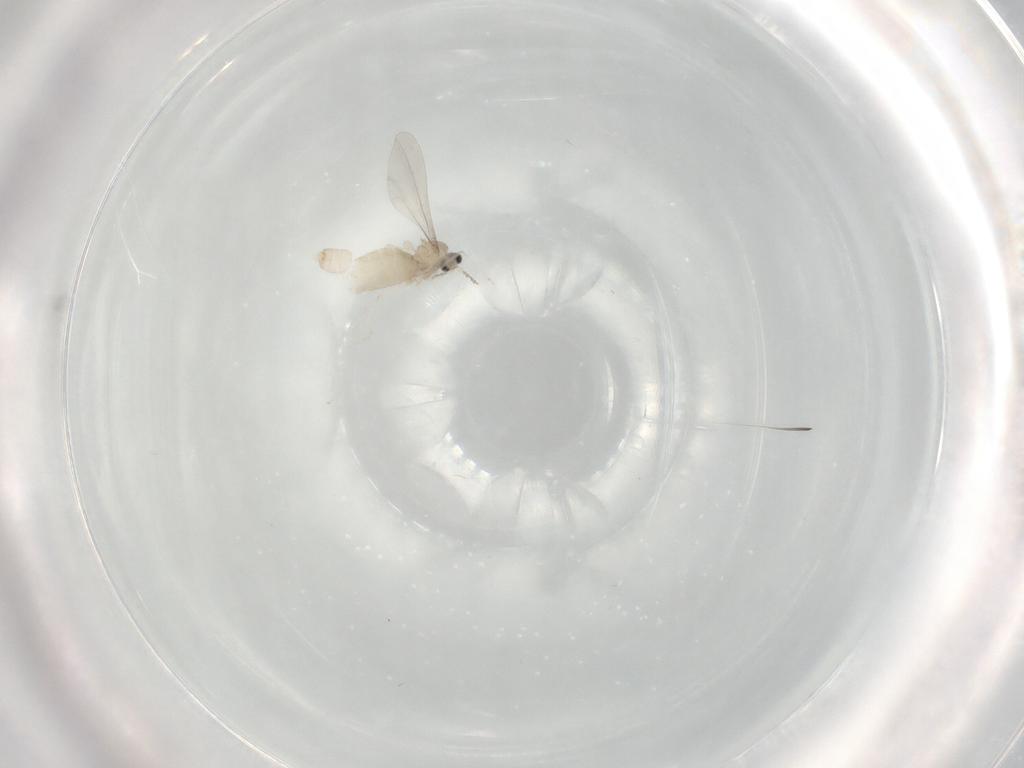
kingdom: Animalia
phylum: Arthropoda
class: Insecta
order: Diptera
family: Cecidomyiidae
